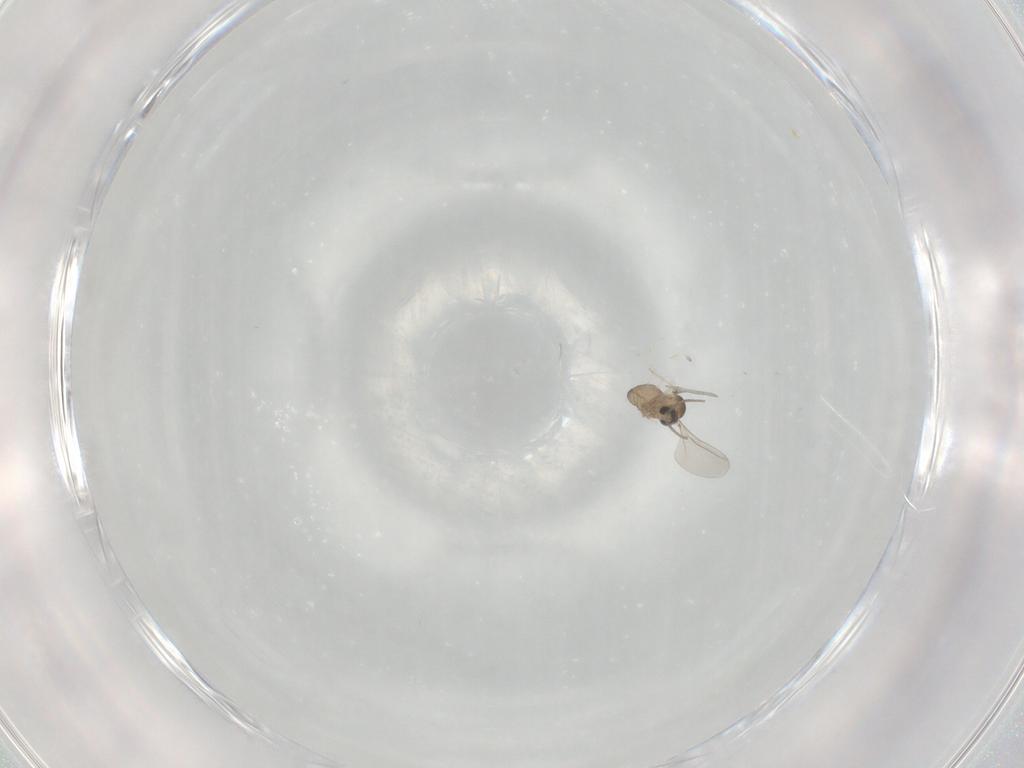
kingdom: Animalia
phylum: Arthropoda
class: Insecta
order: Diptera
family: Cecidomyiidae
